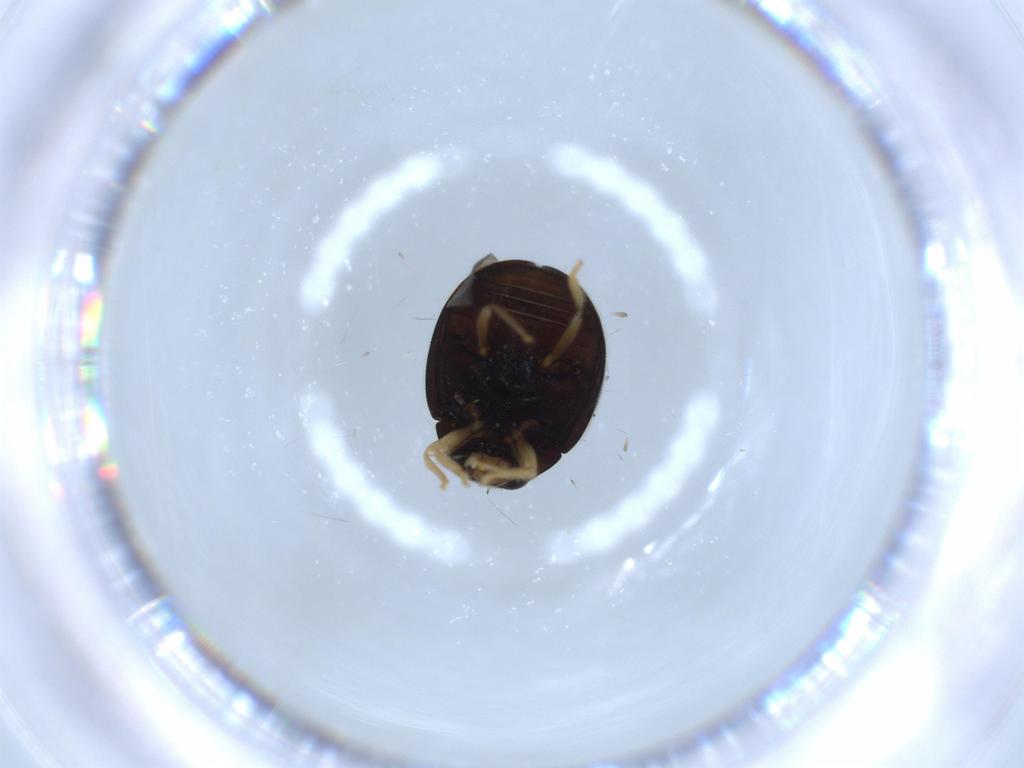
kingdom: Animalia
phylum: Arthropoda
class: Insecta
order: Coleoptera
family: Coccinellidae
